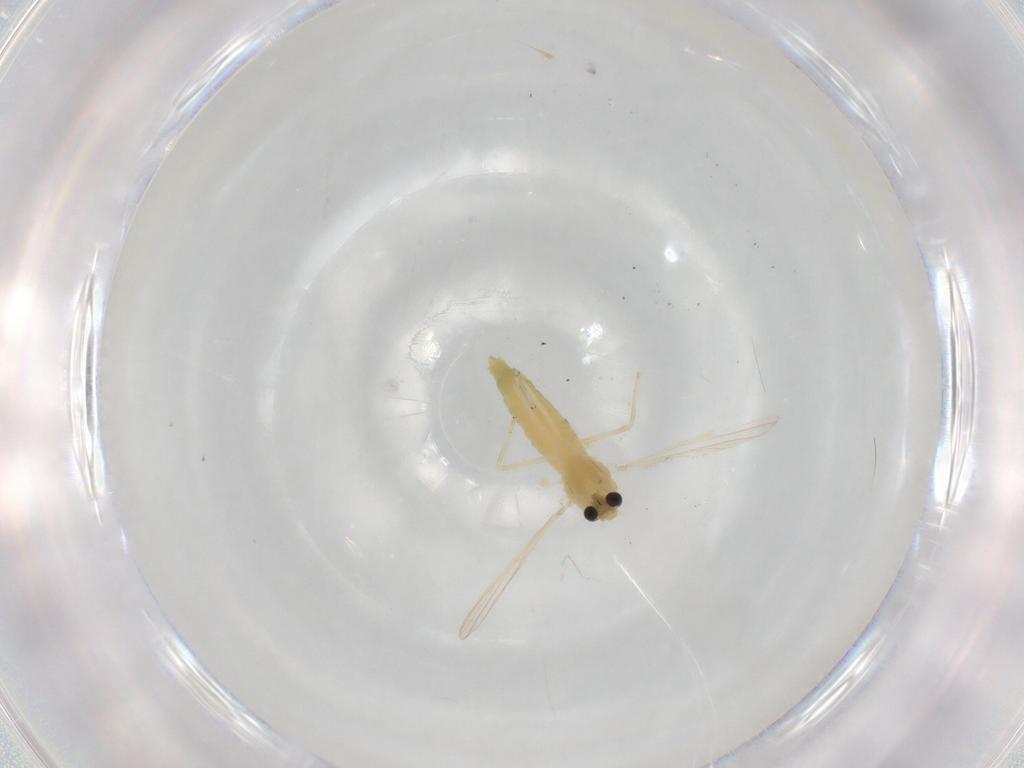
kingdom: Animalia
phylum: Arthropoda
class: Insecta
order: Diptera
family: Chironomidae
